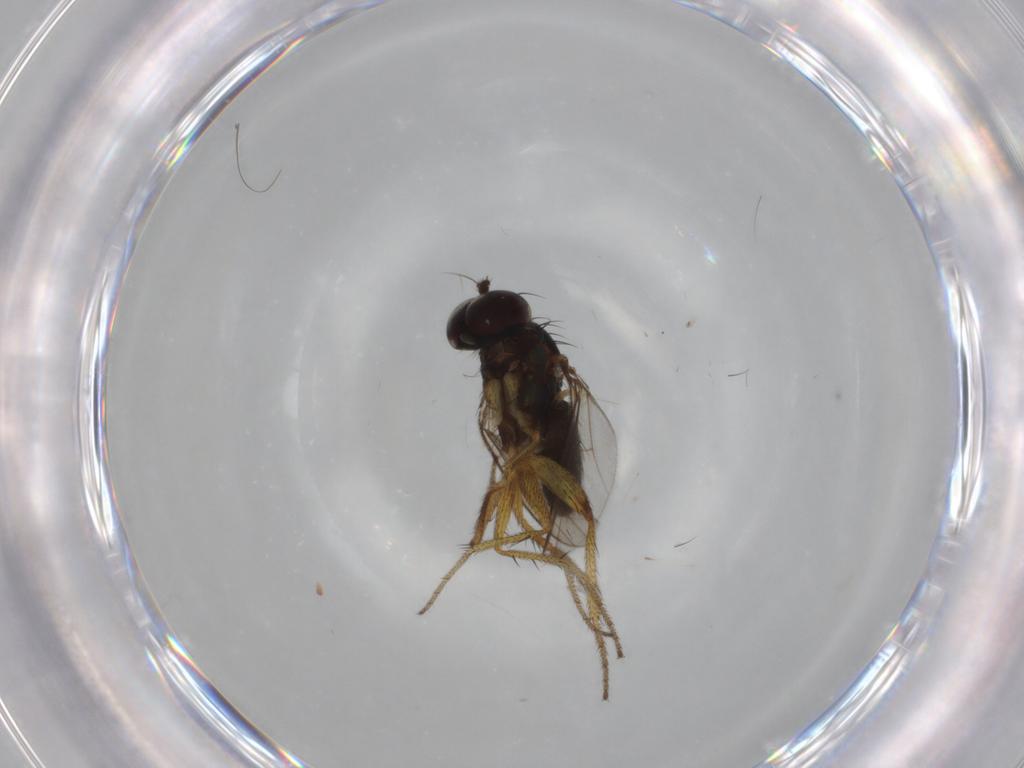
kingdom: Animalia
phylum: Arthropoda
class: Insecta
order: Diptera
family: Dolichopodidae
